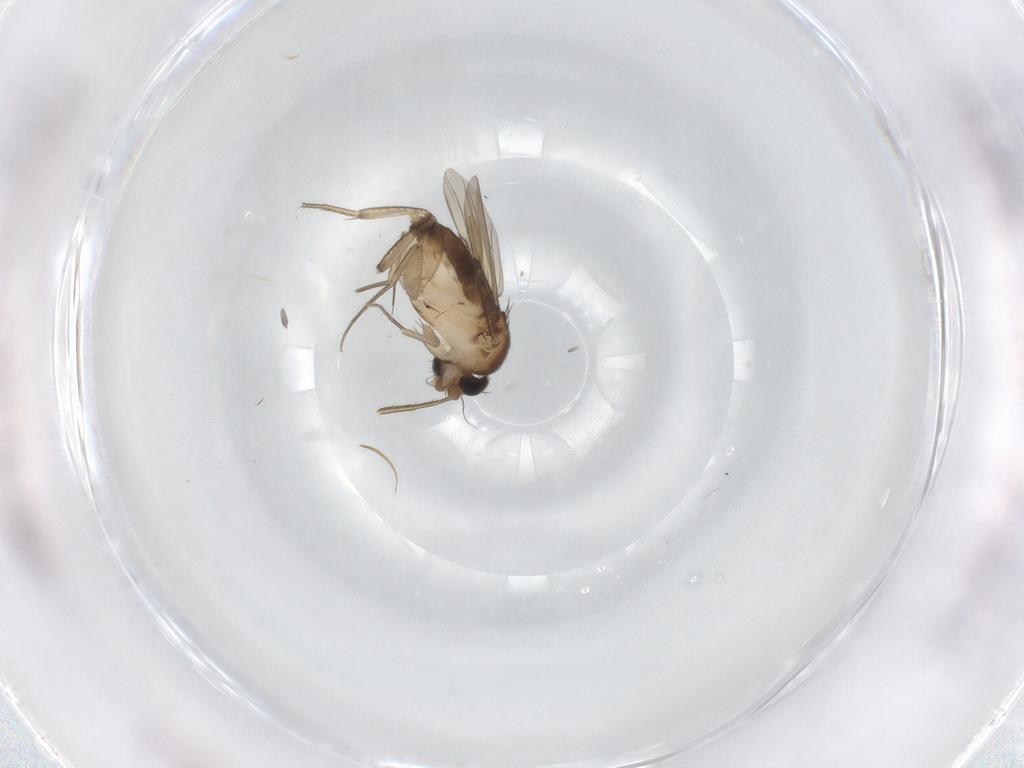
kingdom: Animalia
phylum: Arthropoda
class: Insecta
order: Diptera
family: Phoridae
